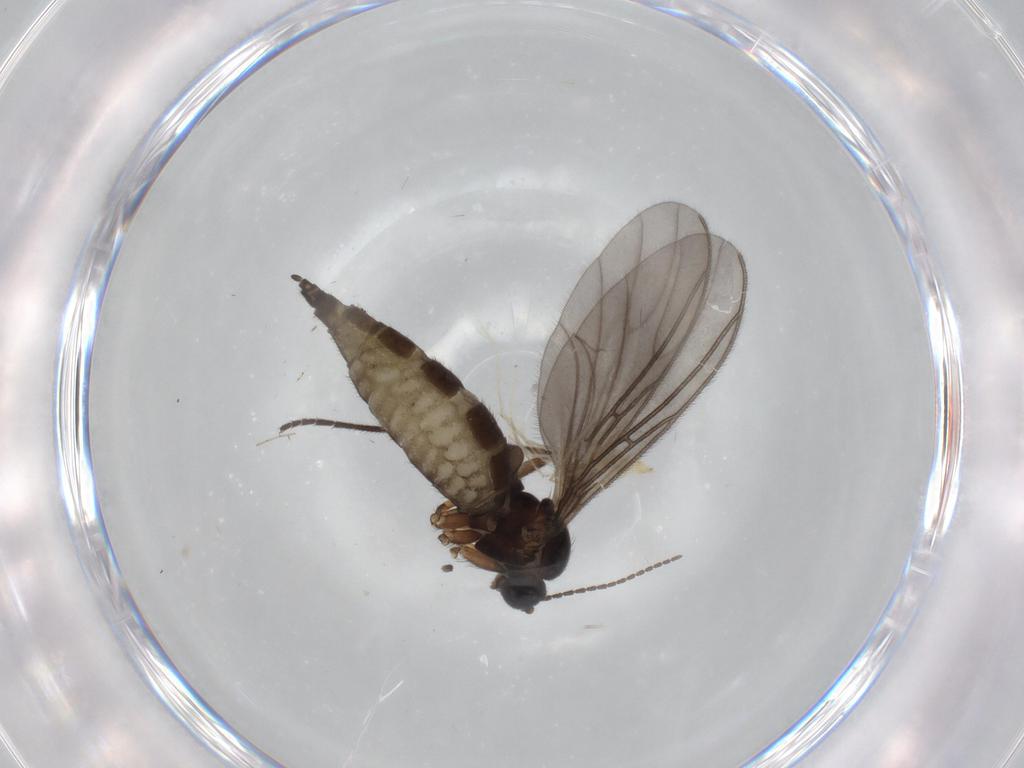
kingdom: Animalia
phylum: Arthropoda
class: Insecta
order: Diptera
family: Sciaridae
